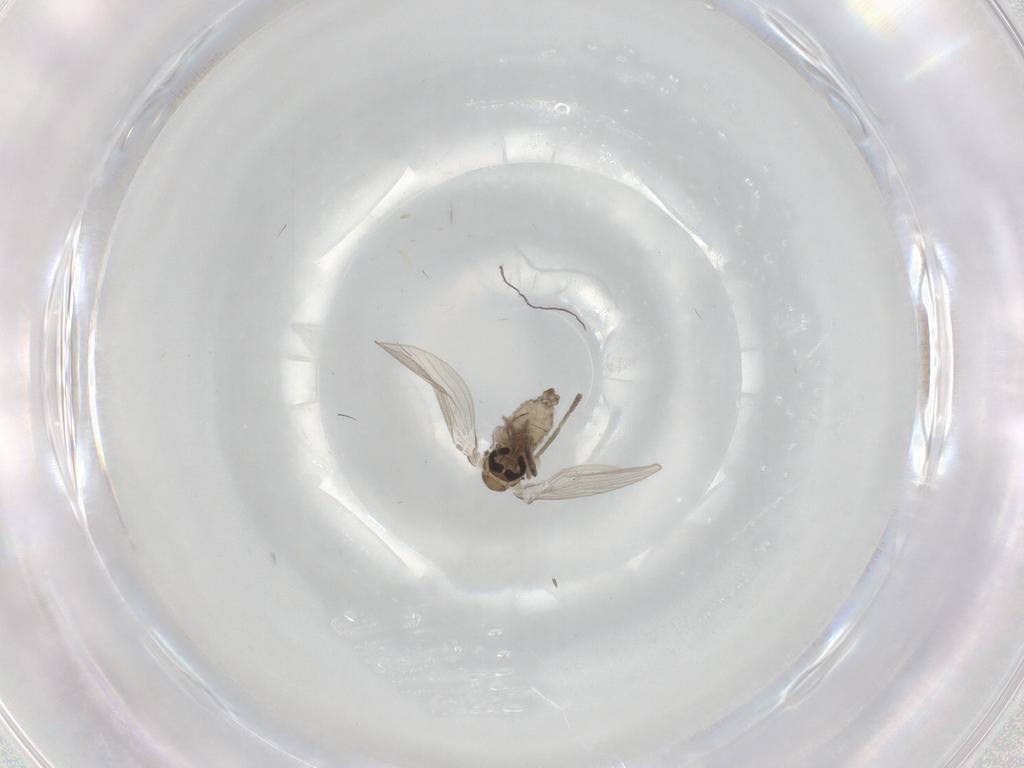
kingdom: Animalia
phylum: Arthropoda
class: Insecta
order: Diptera
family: Psychodidae
